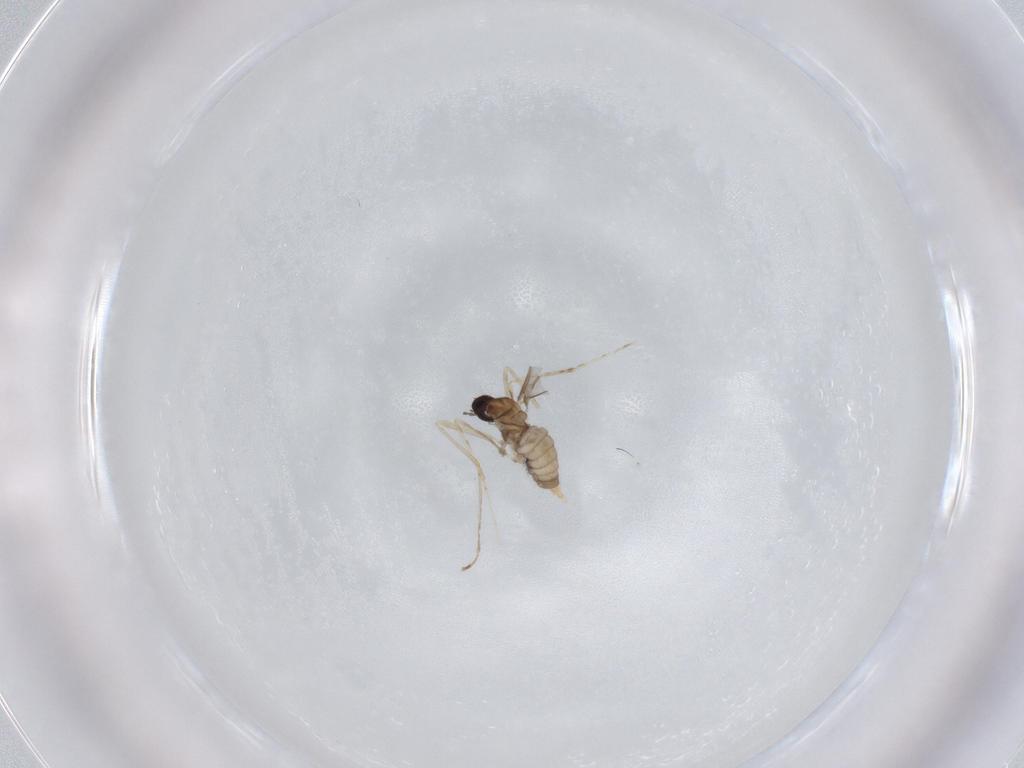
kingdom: Animalia
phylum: Arthropoda
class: Insecta
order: Diptera
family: Cecidomyiidae
